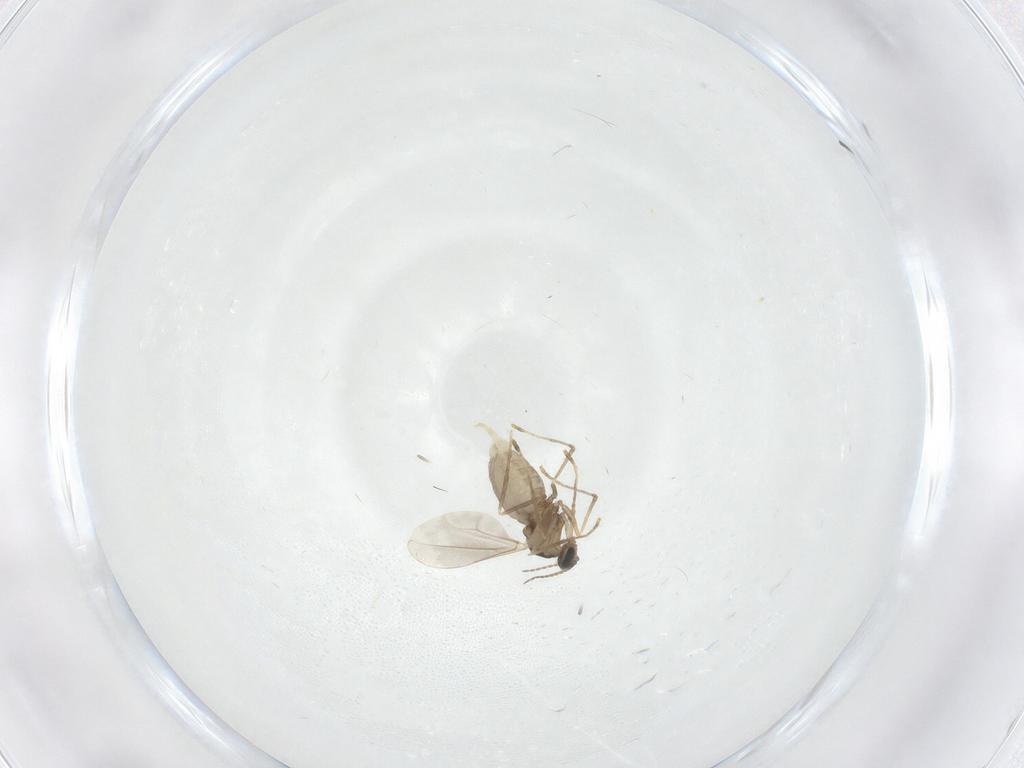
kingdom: Animalia
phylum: Arthropoda
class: Insecta
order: Diptera
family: Cecidomyiidae
